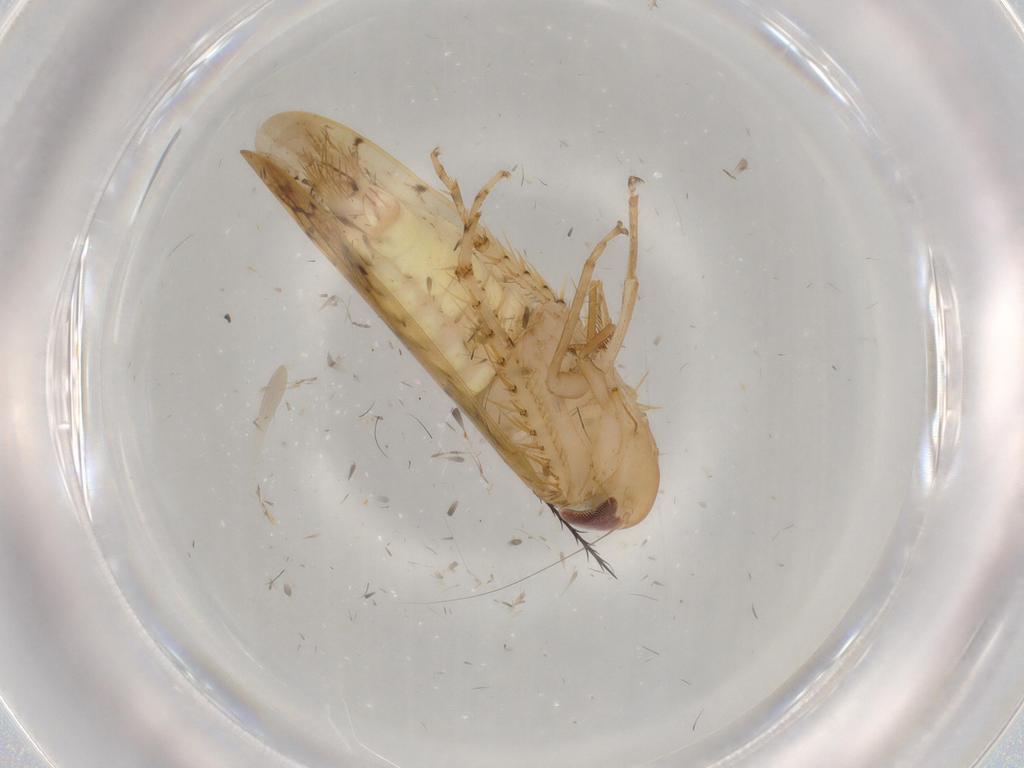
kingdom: Animalia
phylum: Arthropoda
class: Insecta
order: Hemiptera
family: Cicadellidae
